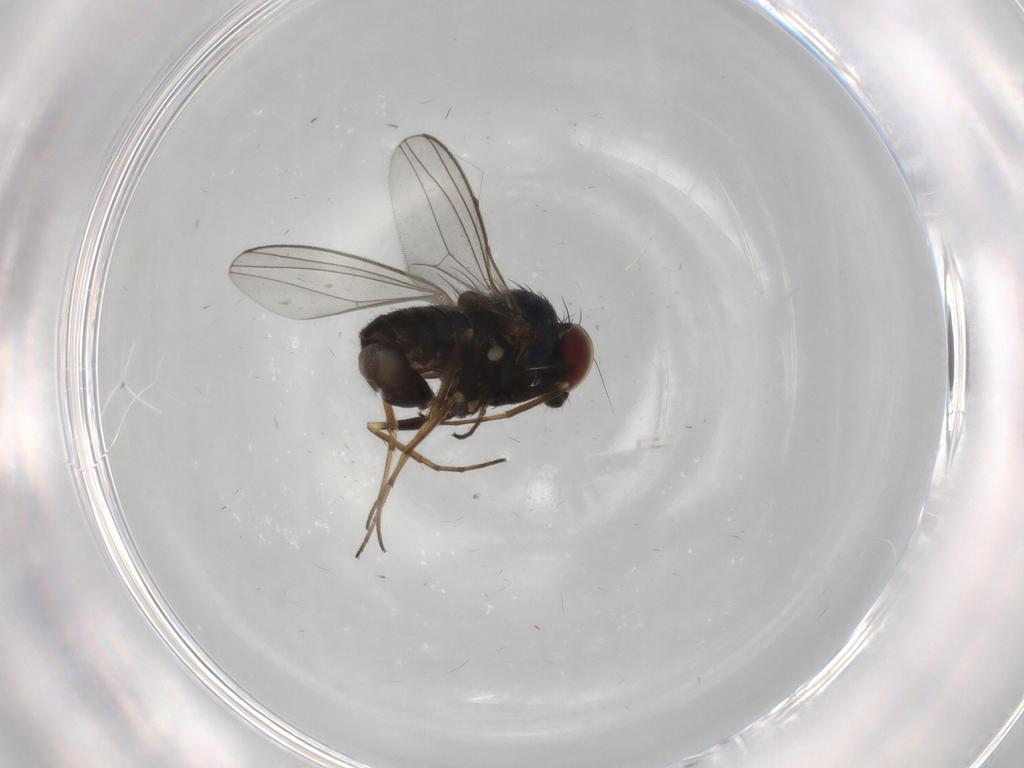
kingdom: Animalia
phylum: Arthropoda
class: Insecta
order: Diptera
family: Dolichopodidae
